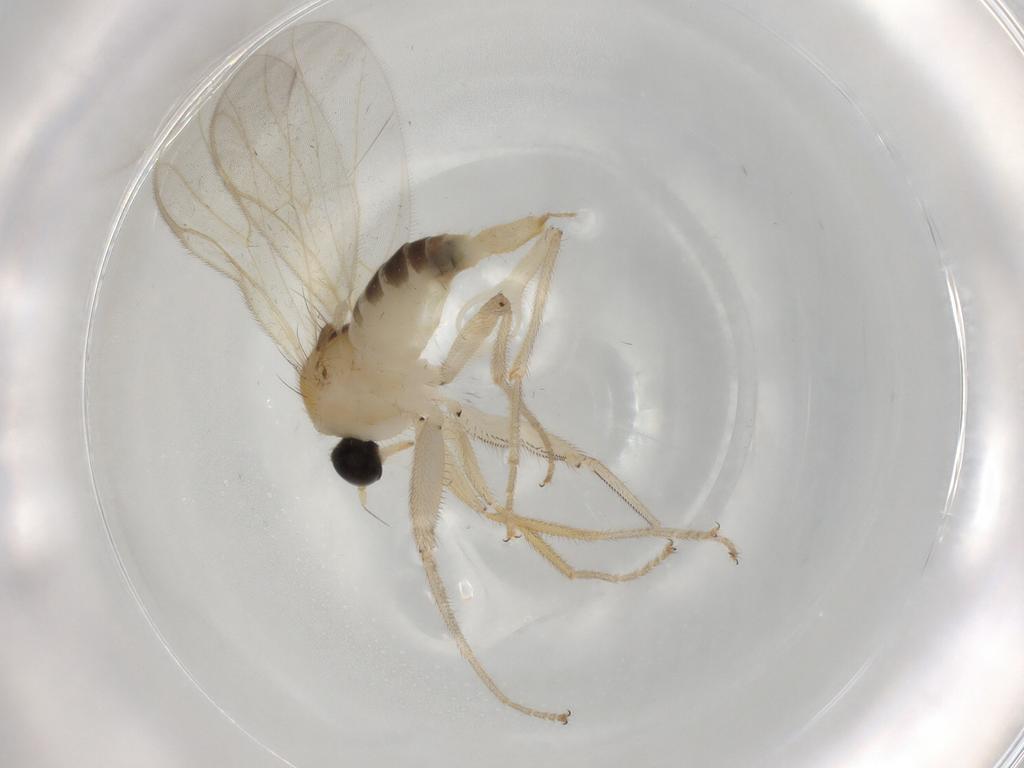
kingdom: Animalia
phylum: Arthropoda
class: Insecta
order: Diptera
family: Hybotidae
